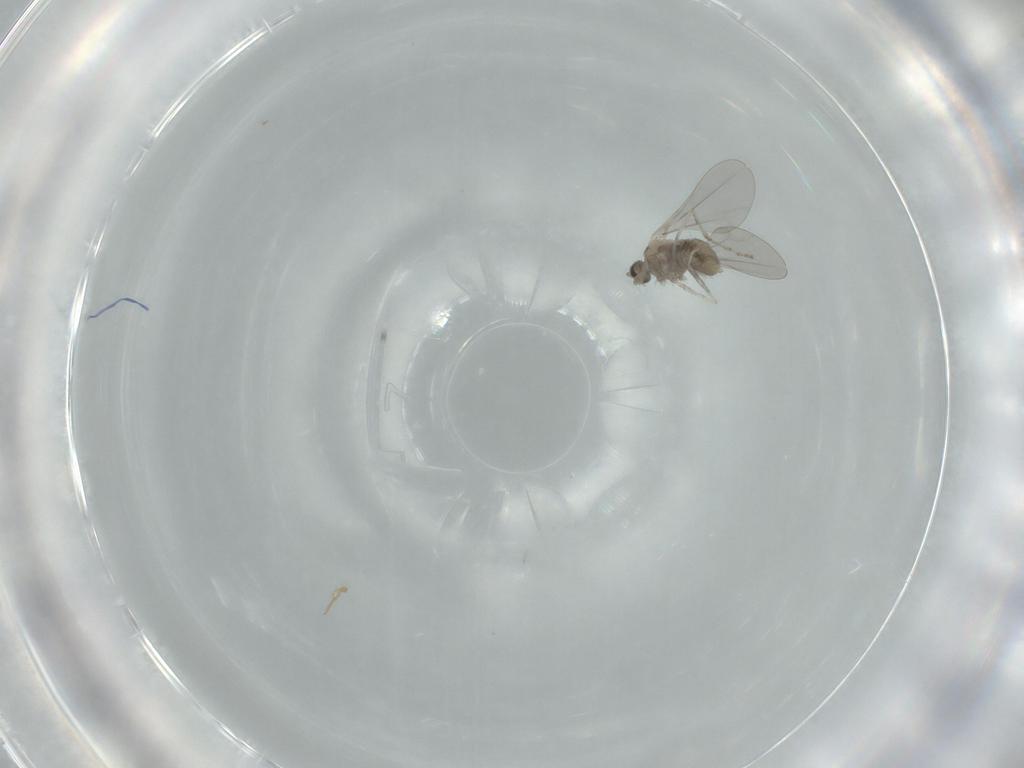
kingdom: Animalia
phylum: Arthropoda
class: Insecta
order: Diptera
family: Cecidomyiidae
